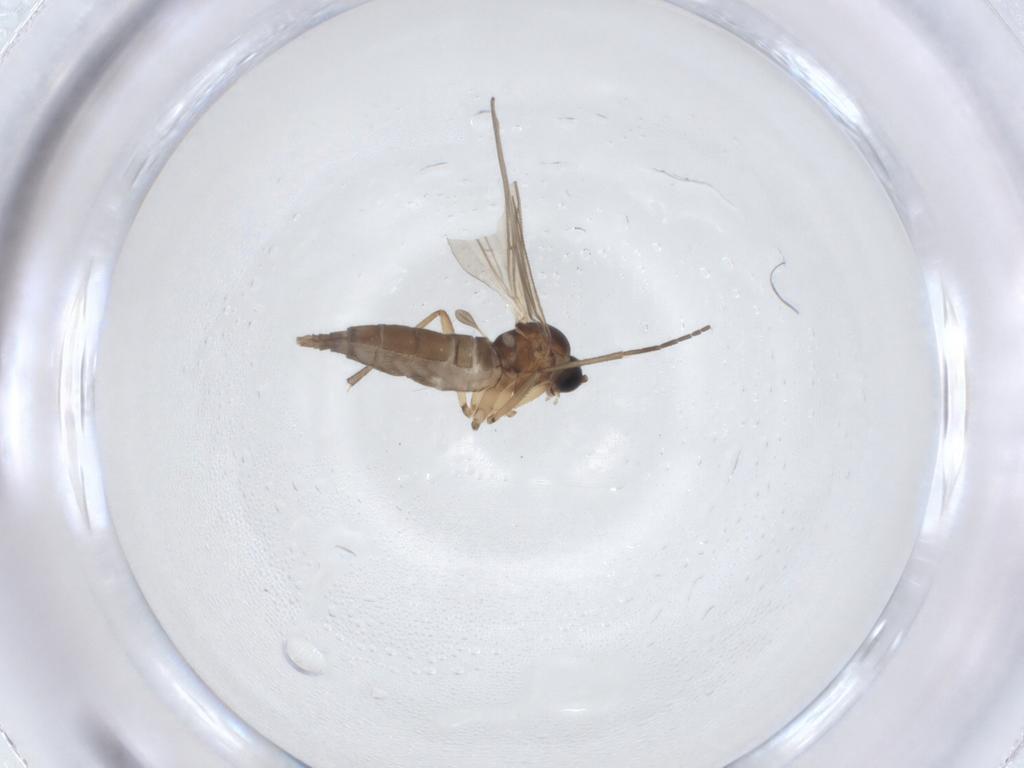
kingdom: Animalia
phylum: Arthropoda
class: Insecta
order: Diptera
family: Sciaridae
